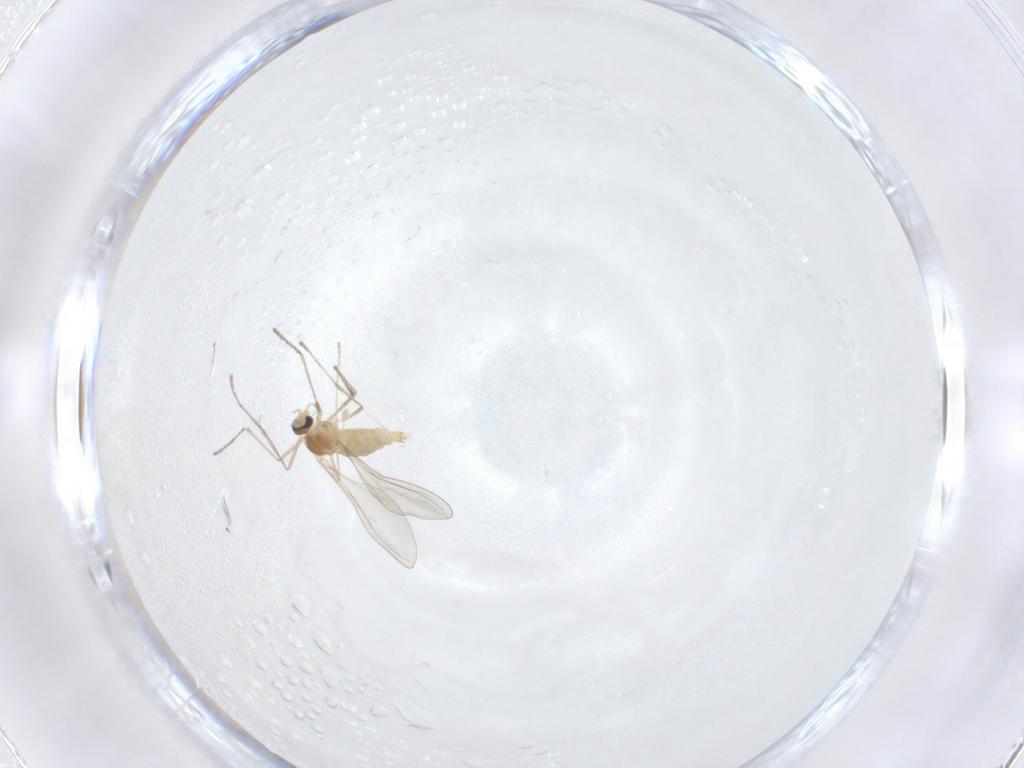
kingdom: Animalia
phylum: Arthropoda
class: Insecta
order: Diptera
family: Cecidomyiidae
